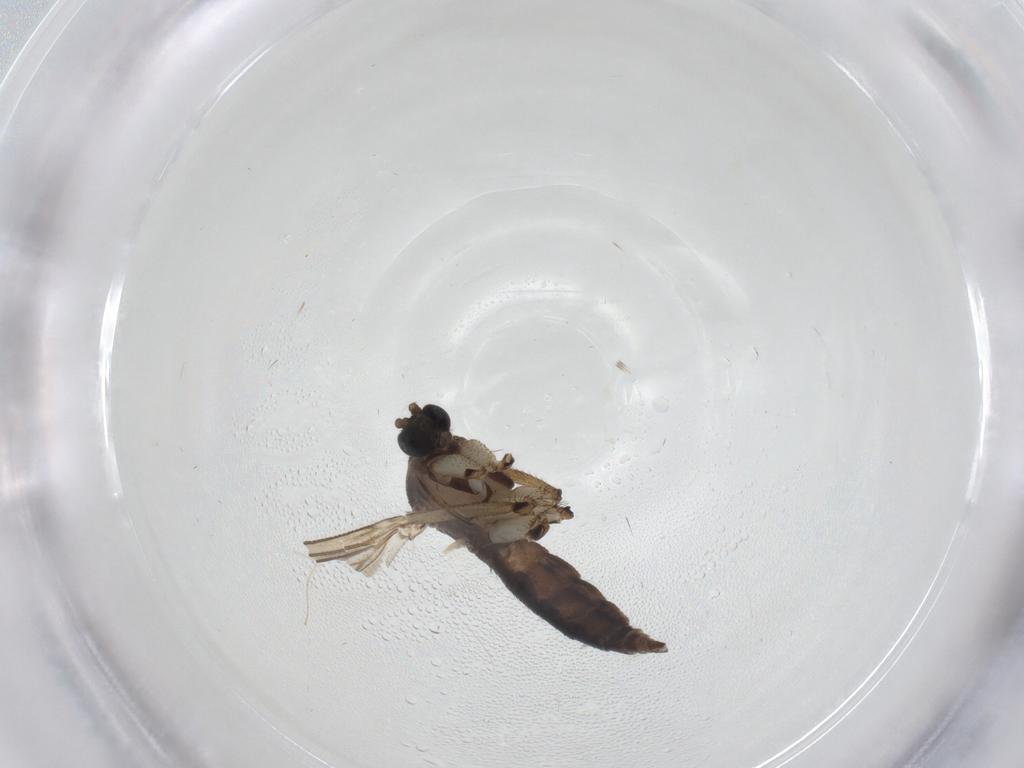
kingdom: Animalia
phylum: Arthropoda
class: Insecta
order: Diptera
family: Sciaridae
